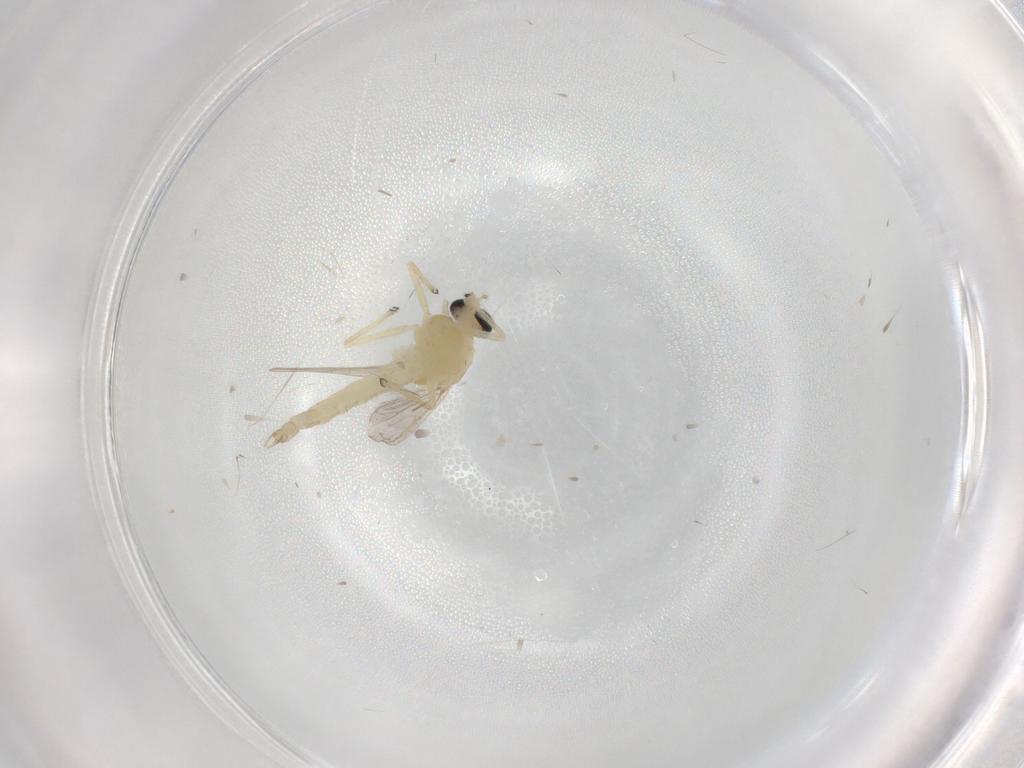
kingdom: Animalia
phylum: Arthropoda
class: Insecta
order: Diptera
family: Chironomidae
